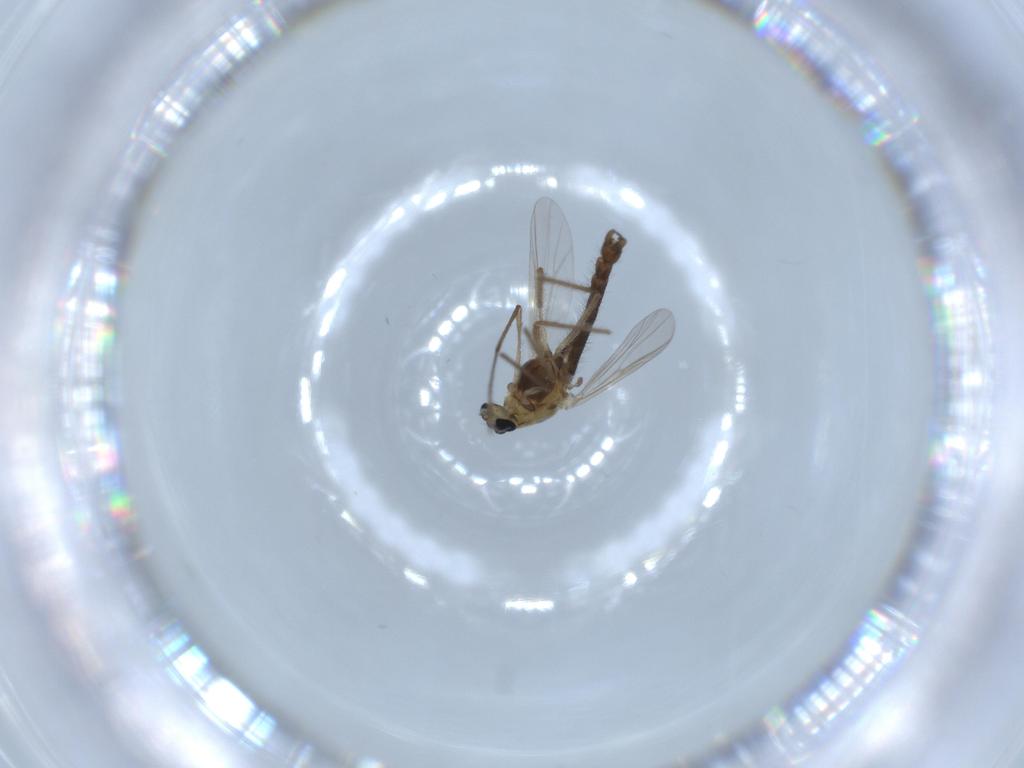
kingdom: Animalia
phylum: Arthropoda
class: Insecta
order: Diptera
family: Chironomidae
